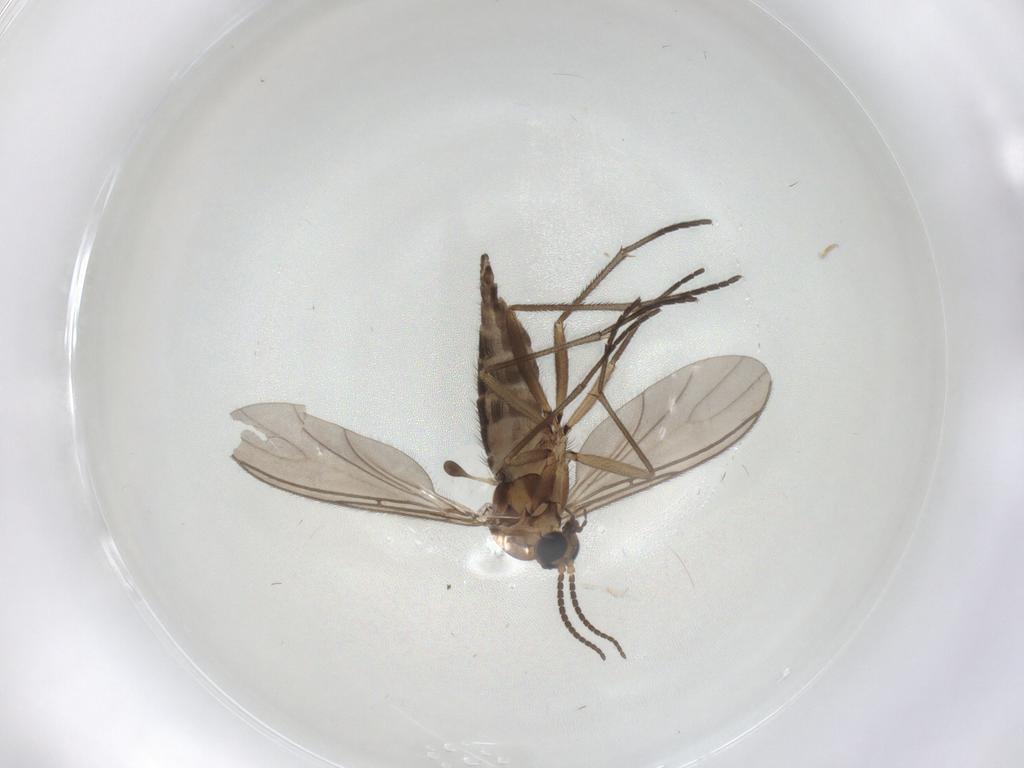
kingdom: Animalia
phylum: Arthropoda
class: Insecta
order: Diptera
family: Sciaridae
